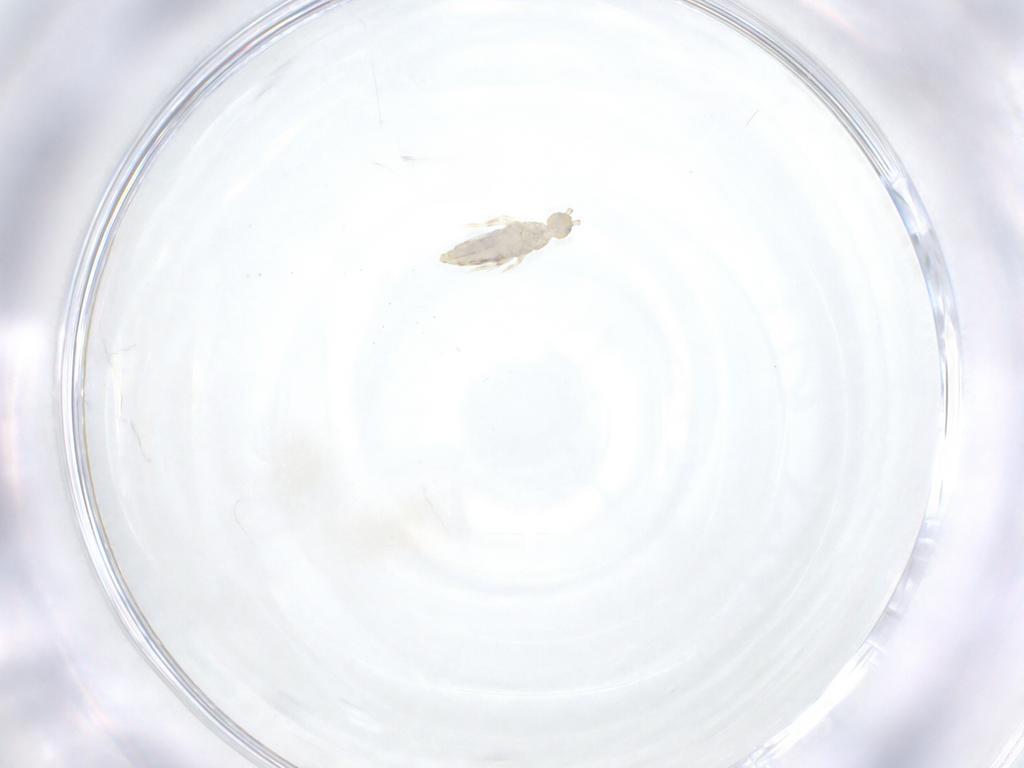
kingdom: Animalia
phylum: Arthropoda
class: Collembola
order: Entomobryomorpha
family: Entomobryidae
